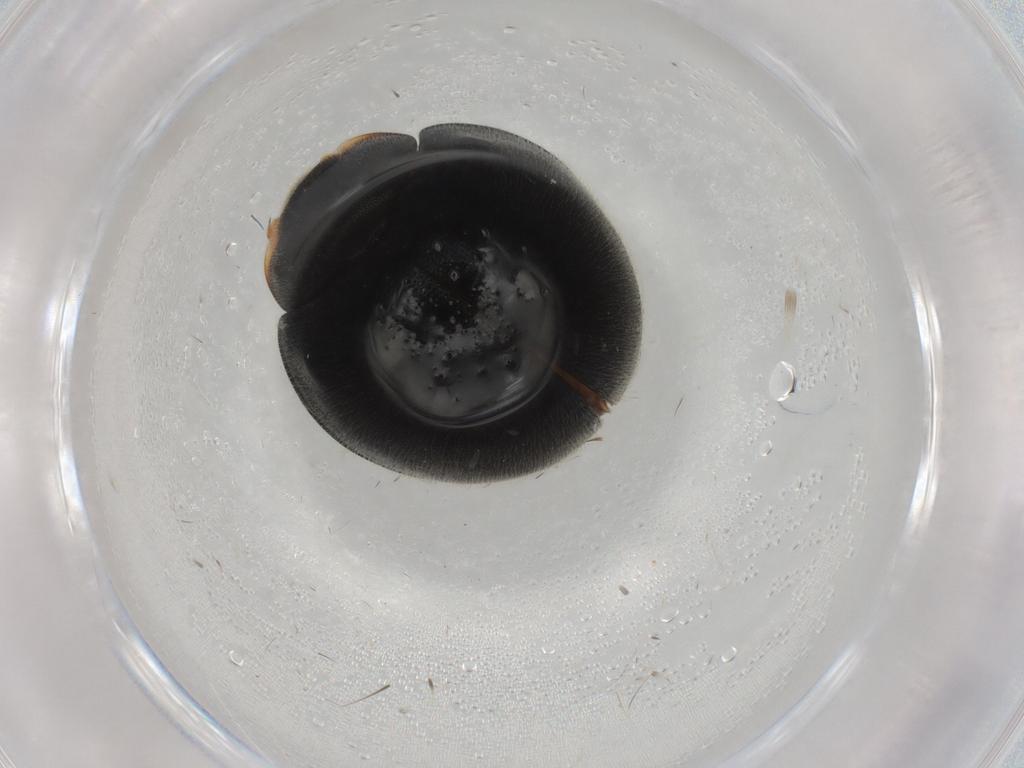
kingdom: Animalia
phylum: Arthropoda
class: Insecta
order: Coleoptera
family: Coccinellidae
